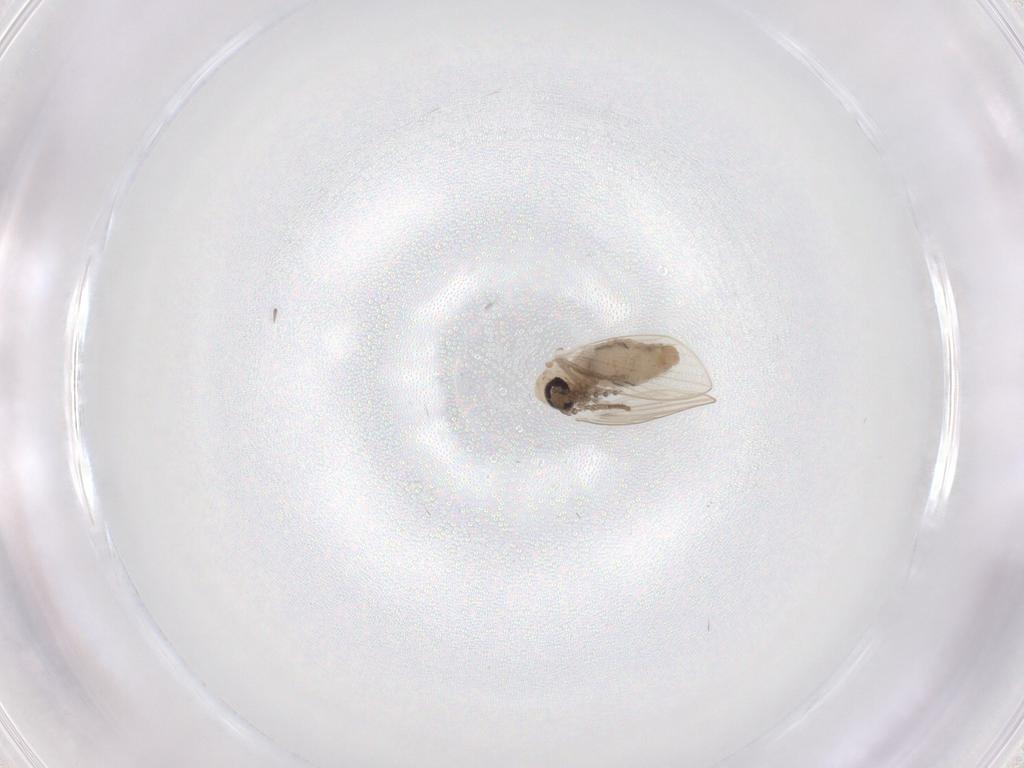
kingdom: Animalia
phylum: Arthropoda
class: Insecta
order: Diptera
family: Psychodidae
